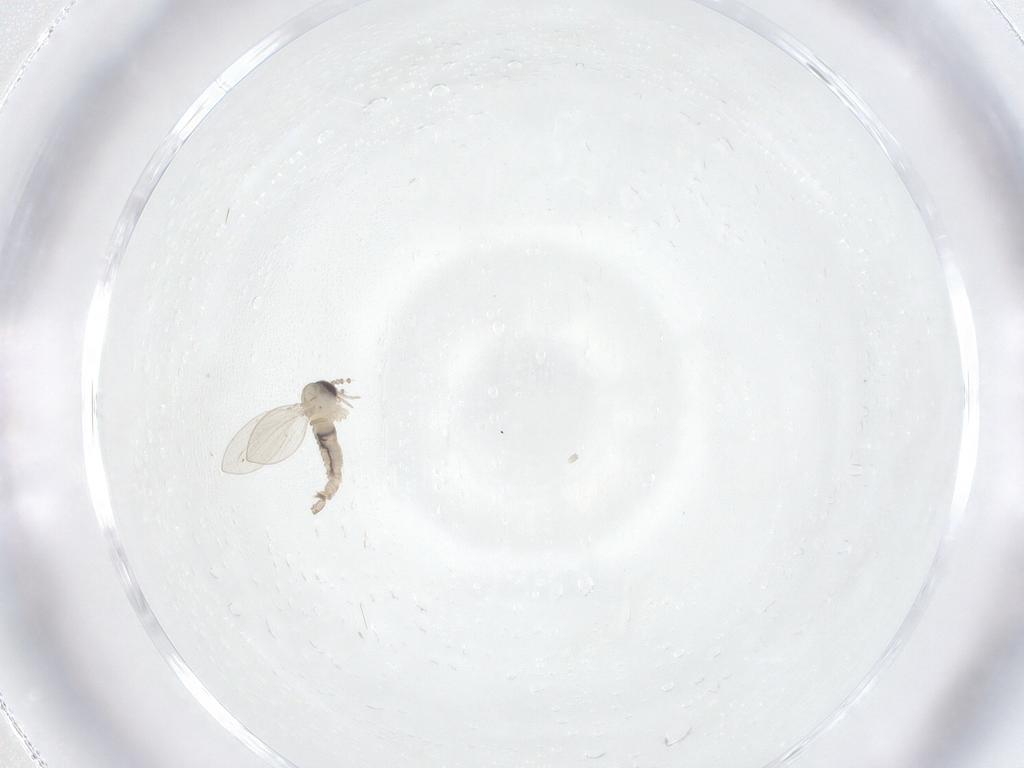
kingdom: Animalia
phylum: Arthropoda
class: Insecta
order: Diptera
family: Psychodidae
